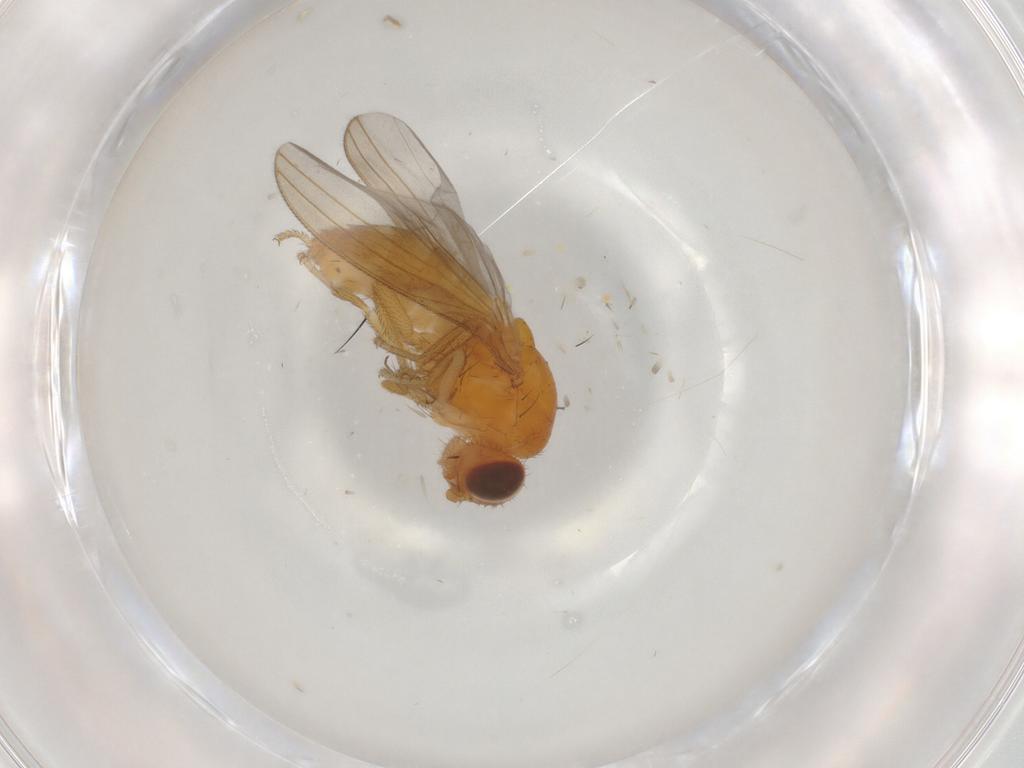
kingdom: Animalia
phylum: Arthropoda
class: Insecta
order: Diptera
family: Natalimyzidae
